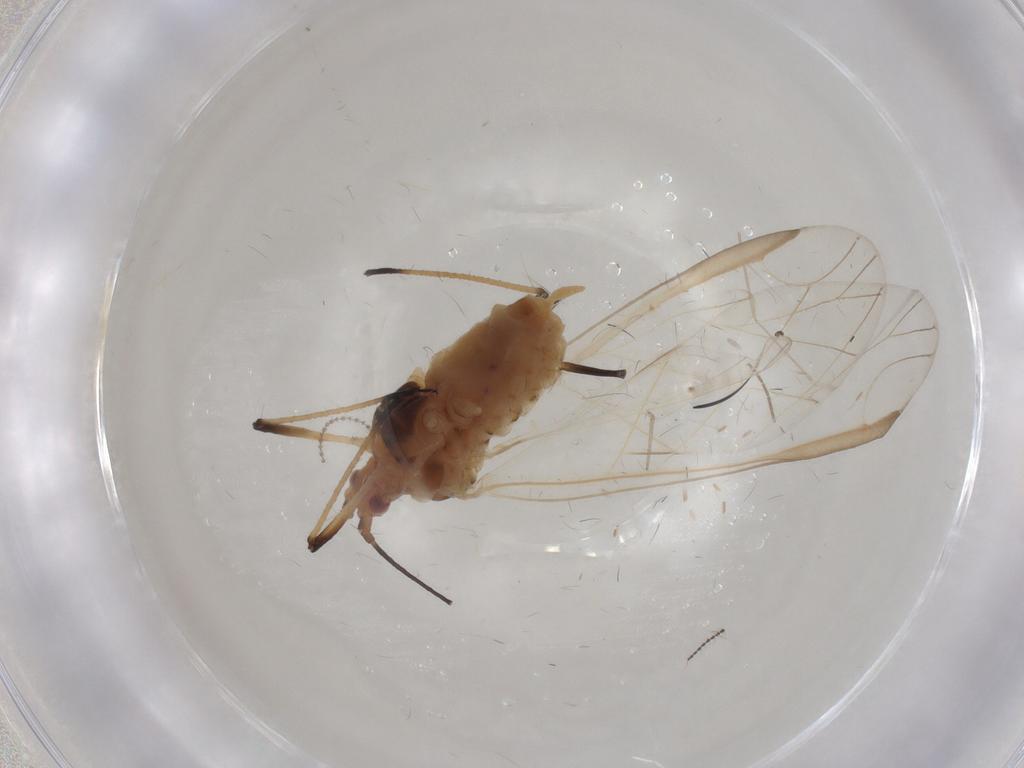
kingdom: Animalia
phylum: Arthropoda
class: Insecta
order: Hemiptera
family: Aphididae
